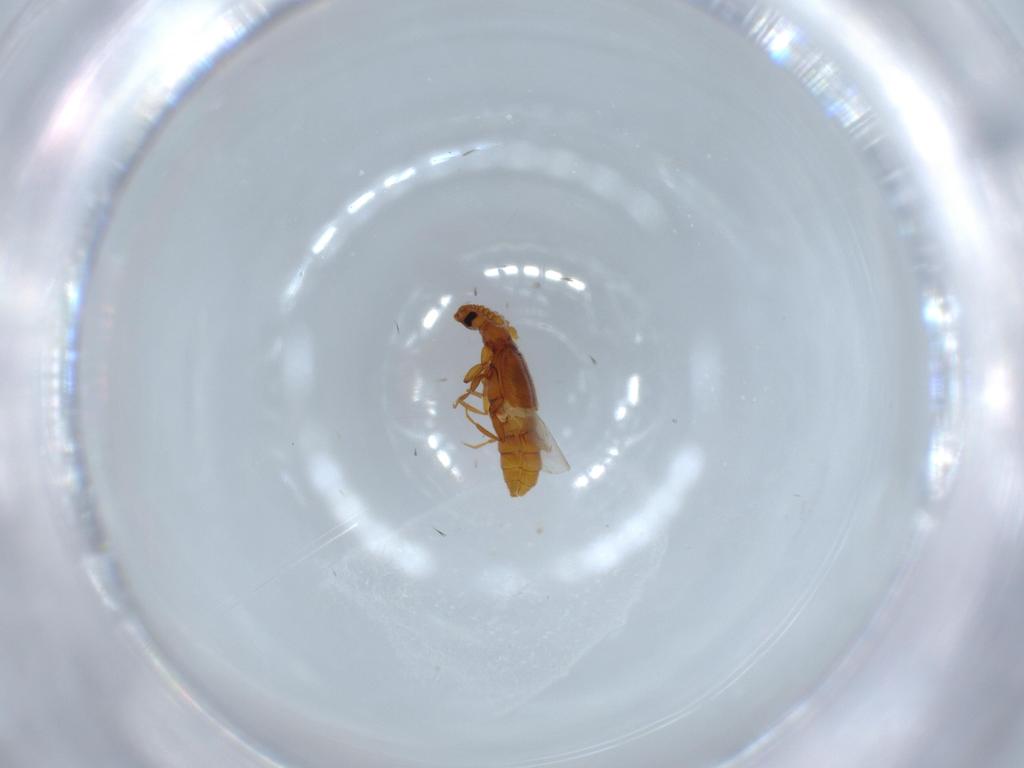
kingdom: Animalia
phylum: Arthropoda
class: Insecta
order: Coleoptera
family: Staphylinidae
